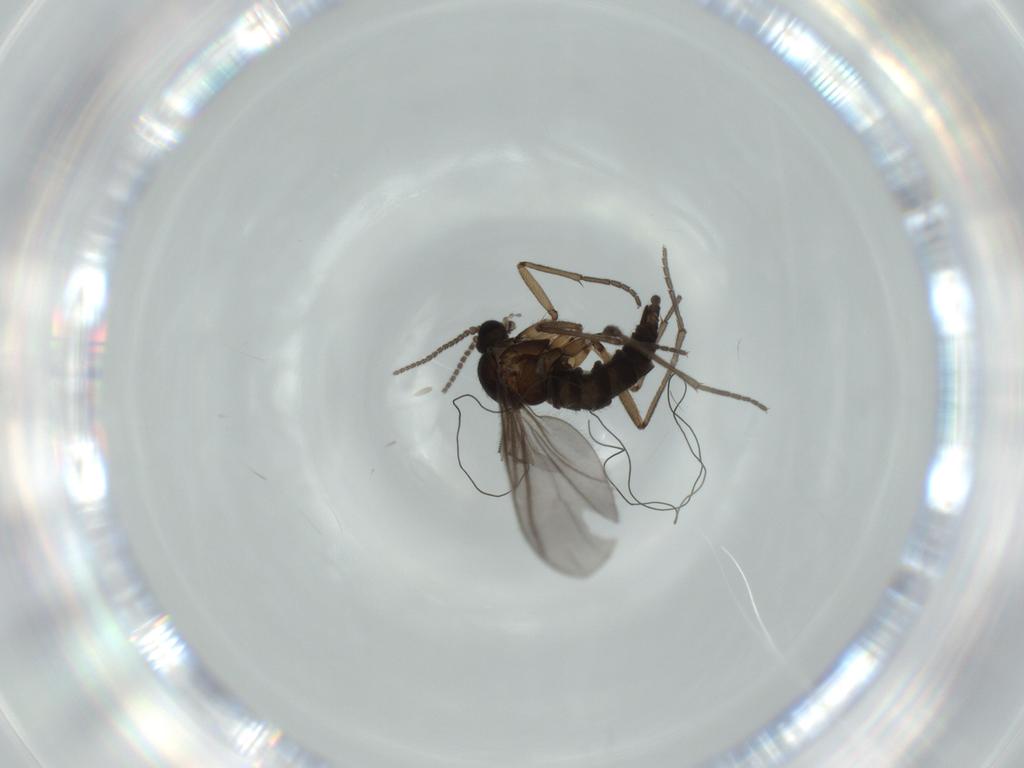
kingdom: Animalia
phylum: Arthropoda
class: Insecta
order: Diptera
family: Sciaridae
